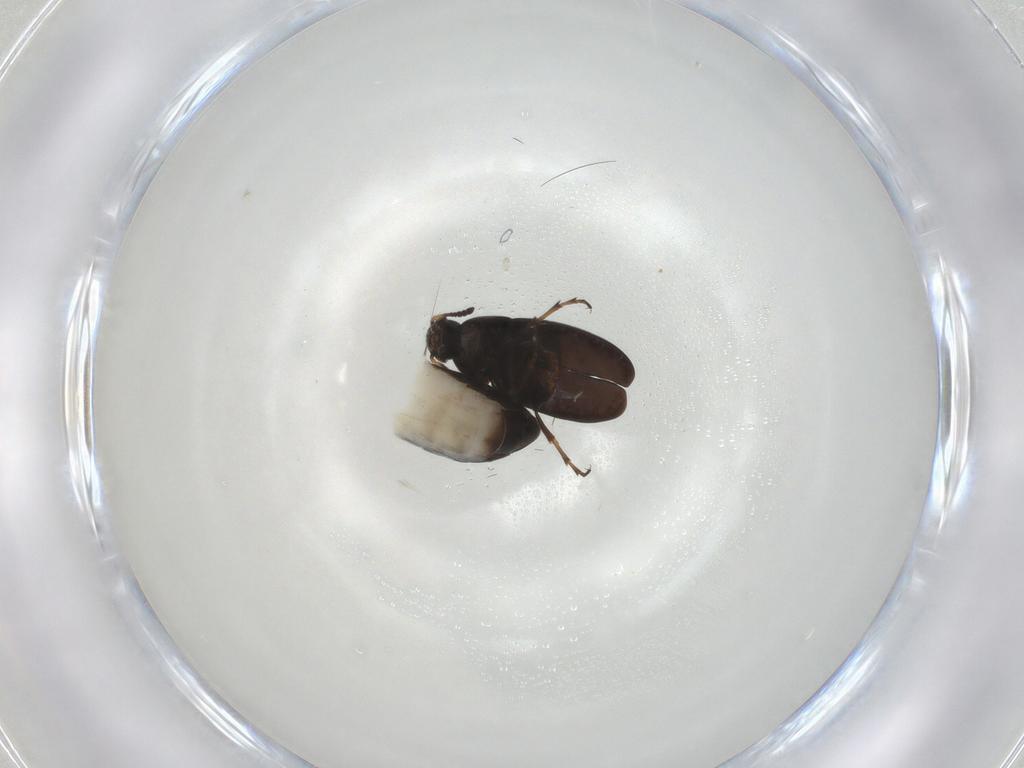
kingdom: Animalia
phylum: Arthropoda
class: Insecta
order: Coleoptera
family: Scraptiidae
